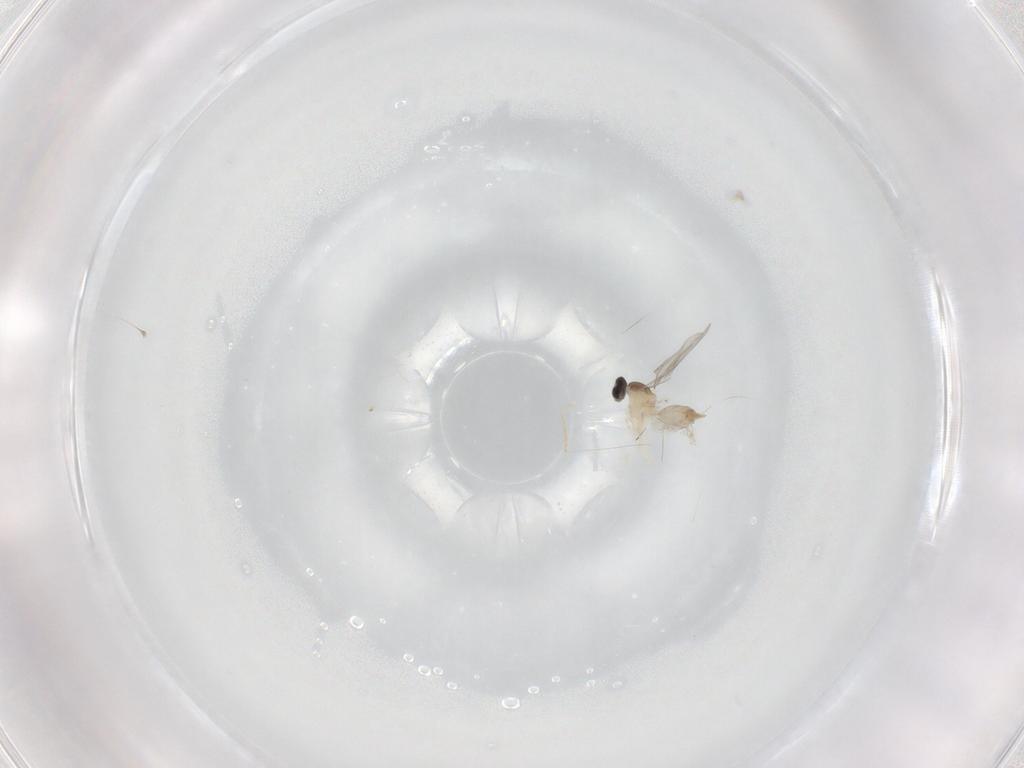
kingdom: Animalia
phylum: Arthropoda
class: Insecta
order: Diptera
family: Cecidomyiidae
